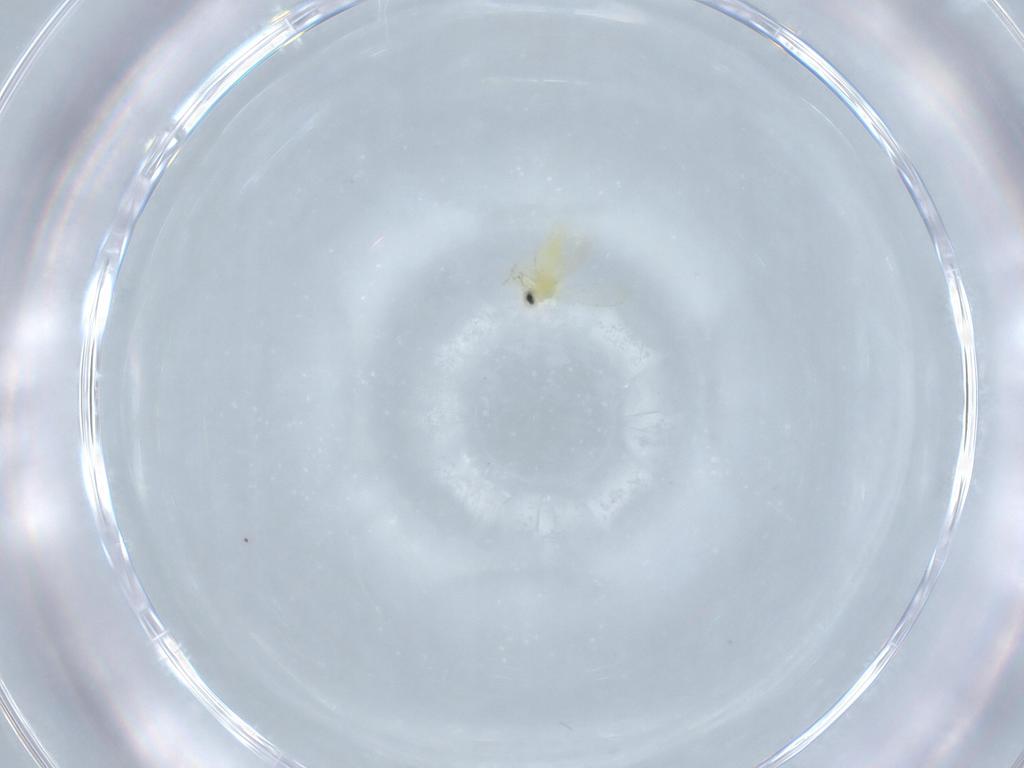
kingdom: Animalia
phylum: Arthropoda
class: Insecta
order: Hemiptera
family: Aleyrodidae
